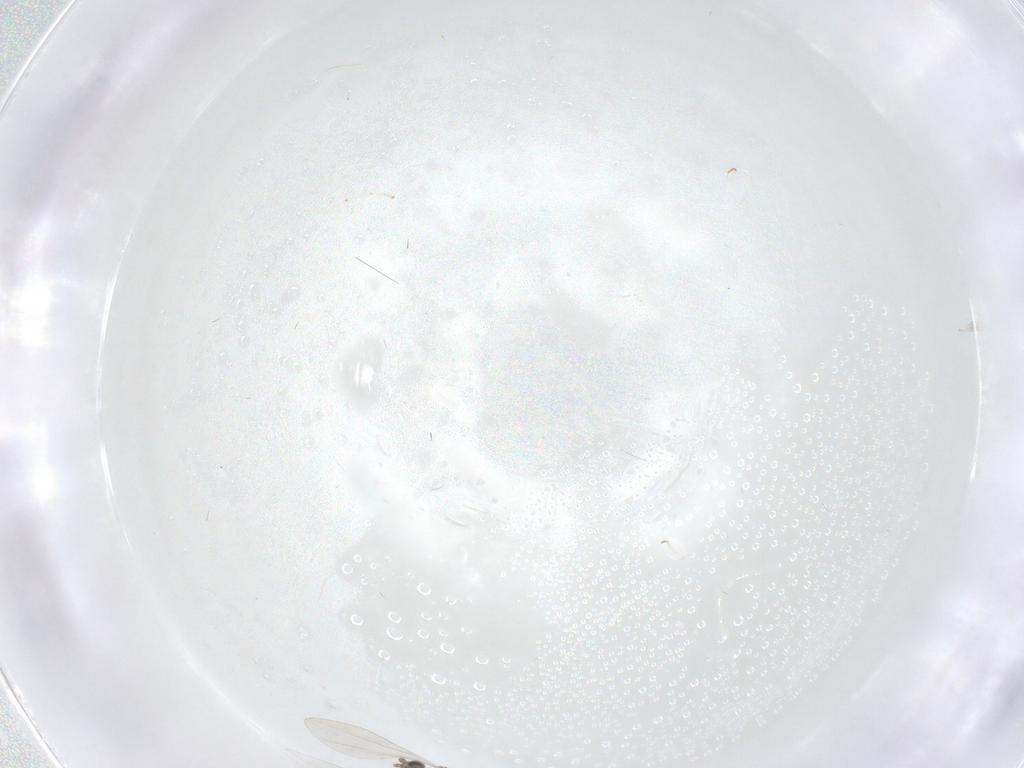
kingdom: Animalia
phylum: Arthropoda
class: Insecta
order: Diptera
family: Cecidomyiidae
